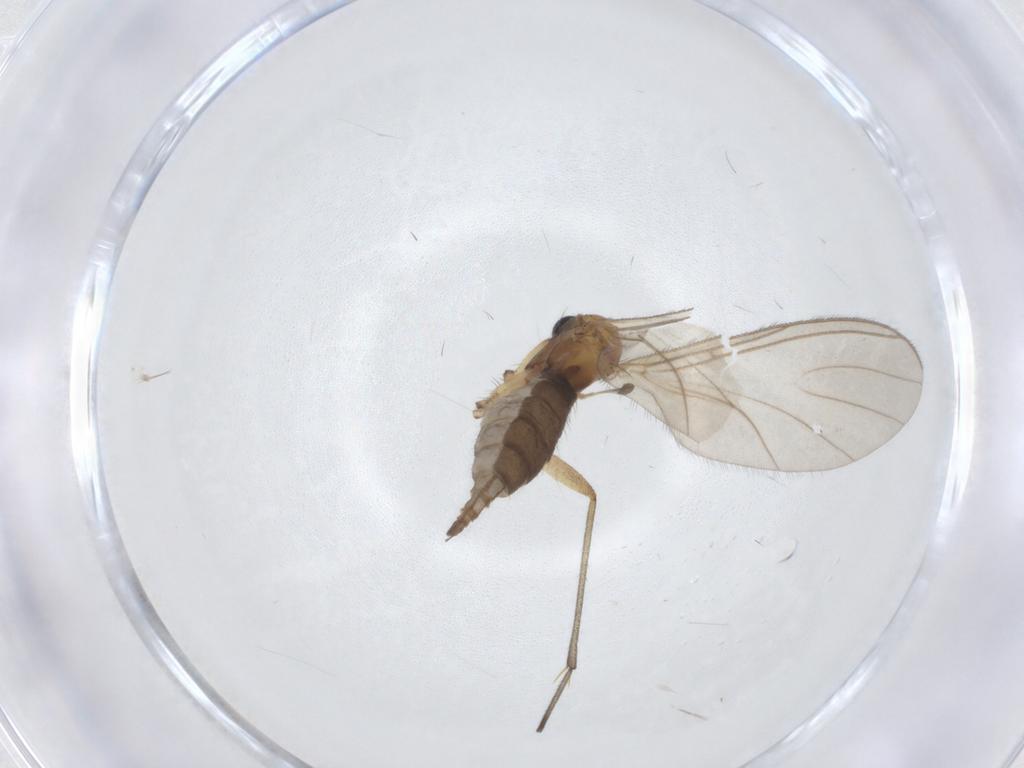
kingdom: Animalia
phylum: Arthropoda
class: Insecta
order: Diptera
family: Sciaridae
